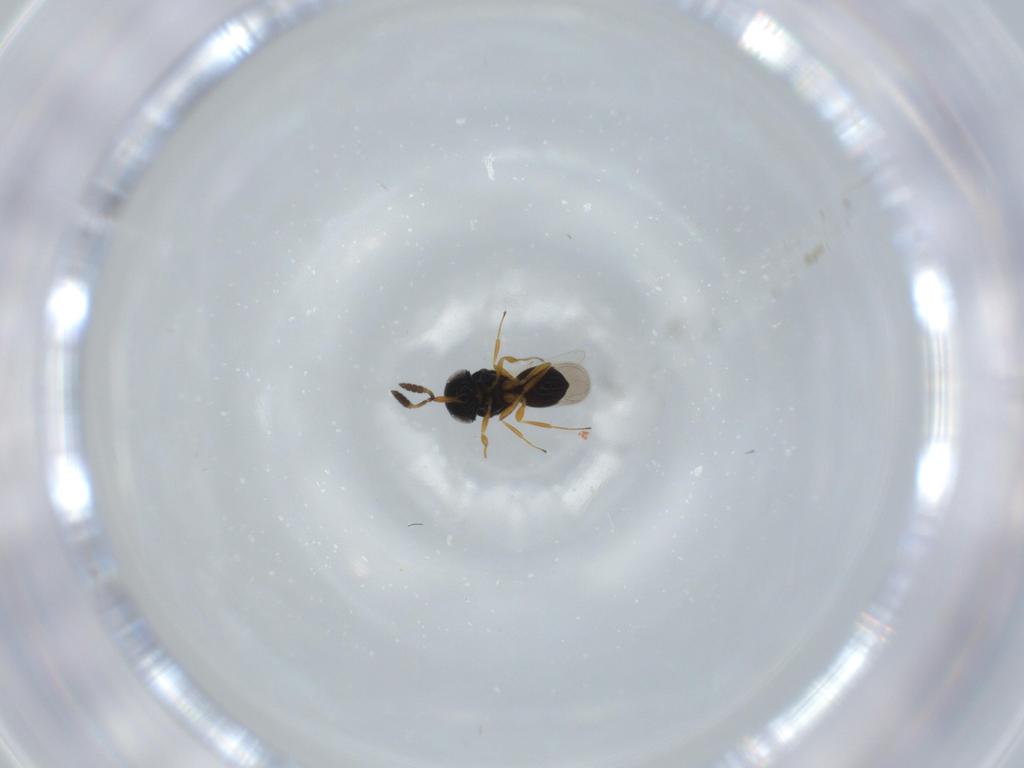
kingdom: Animalia
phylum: Arthropoda
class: Insecta
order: Hymenoptera
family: Scelionidae
